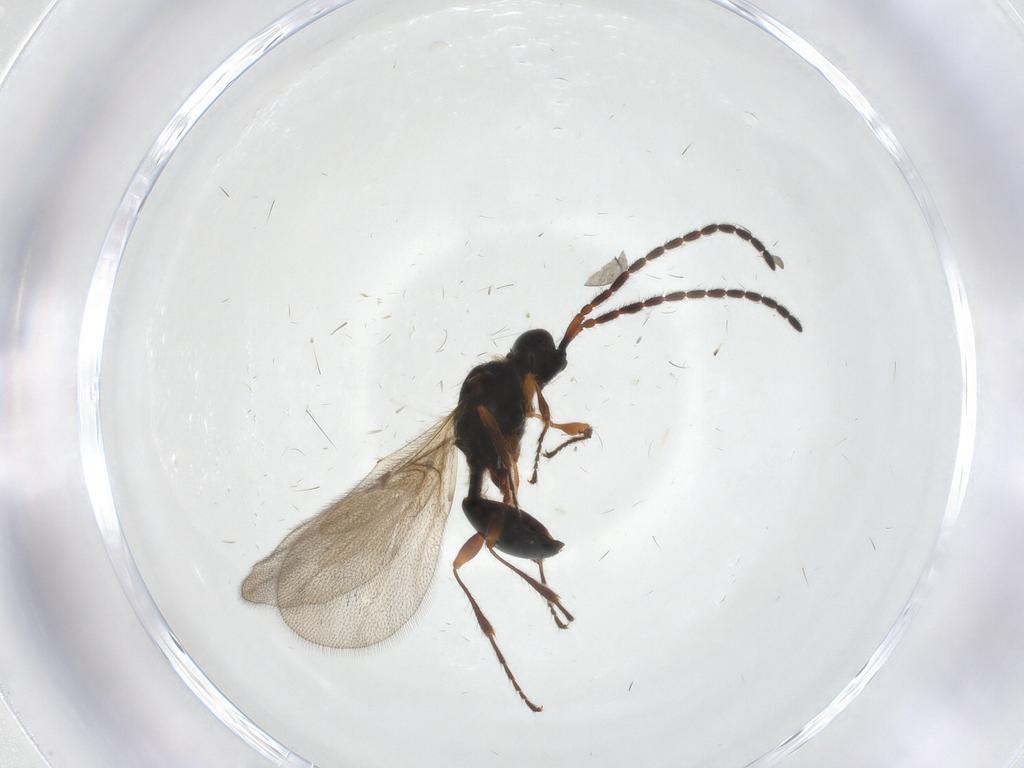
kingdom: Animalia
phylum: Arthropoda
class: Insecta
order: Hymenoptera
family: Diapriidae
